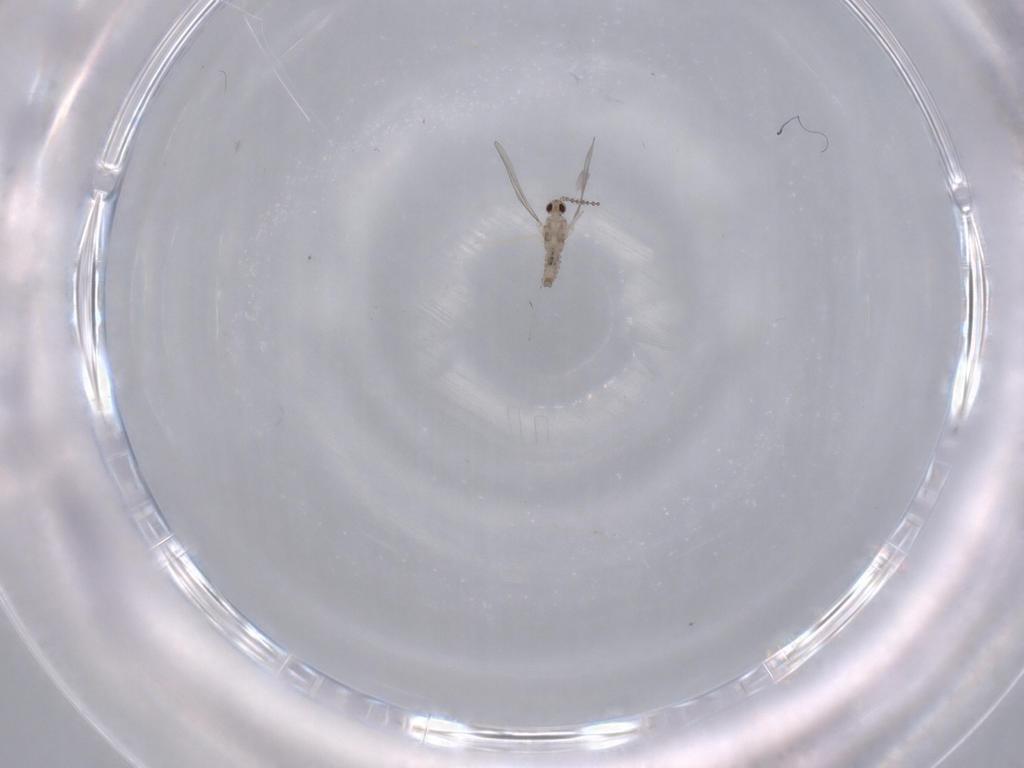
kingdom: Animalia
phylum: Arthropoda
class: Insecta
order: Diptera
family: Cecidomyiidae
